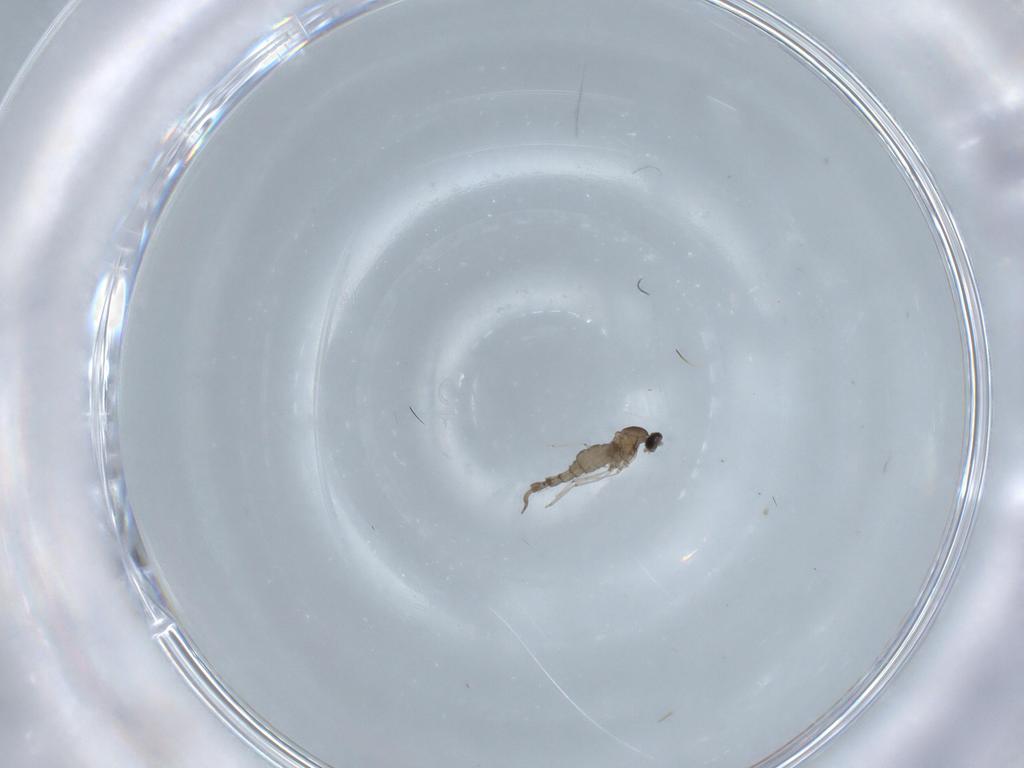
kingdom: Animalia
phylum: Arthropoda
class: Insecta
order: Diptera
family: Cecidomyiidae
